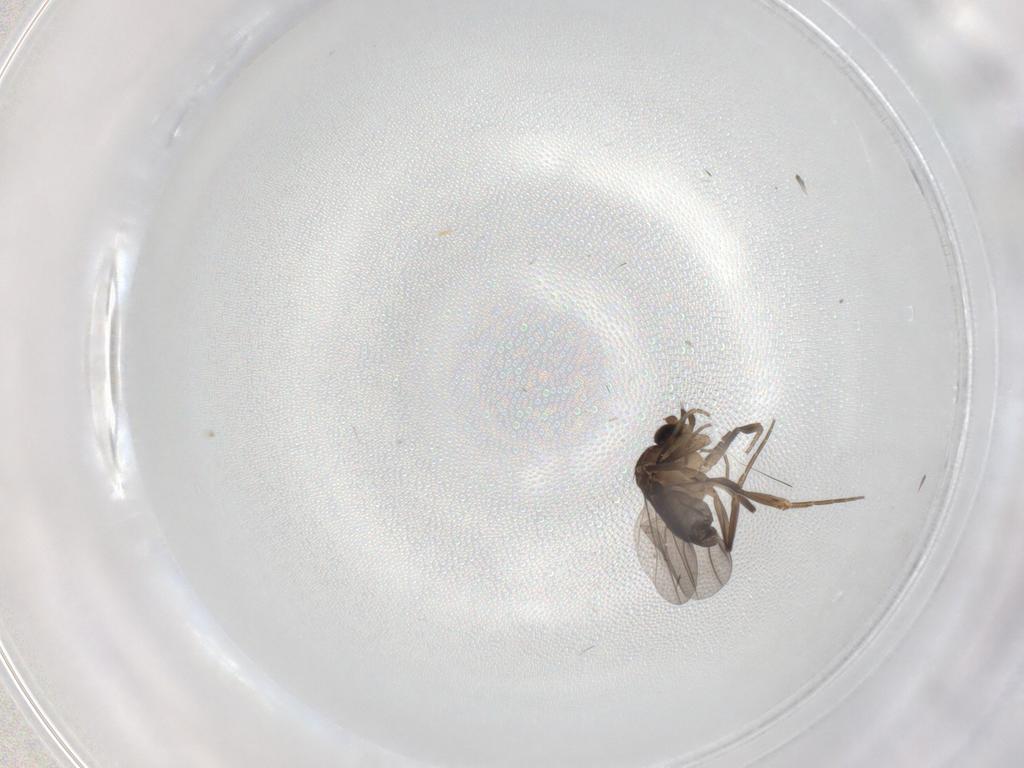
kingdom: Animalia
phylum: Arthropoda
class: Insecta
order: Diptera
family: Phoridae
